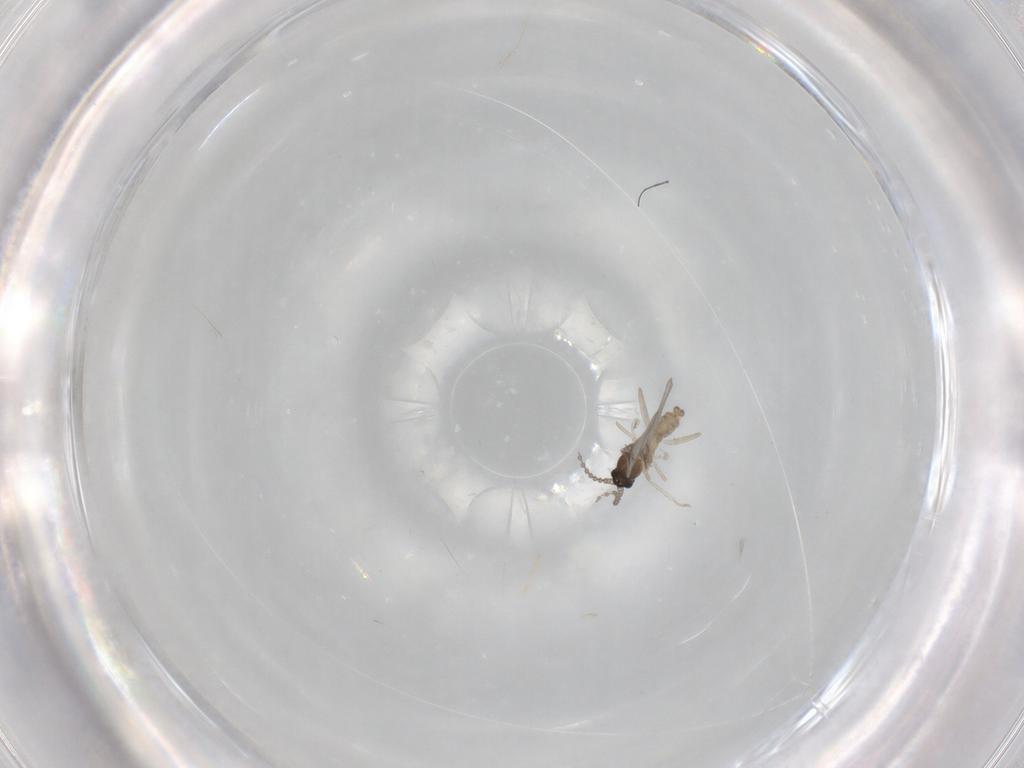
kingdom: Animalia
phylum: Arthropoda
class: Insecta
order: Diptera
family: Cecidomyiidae
